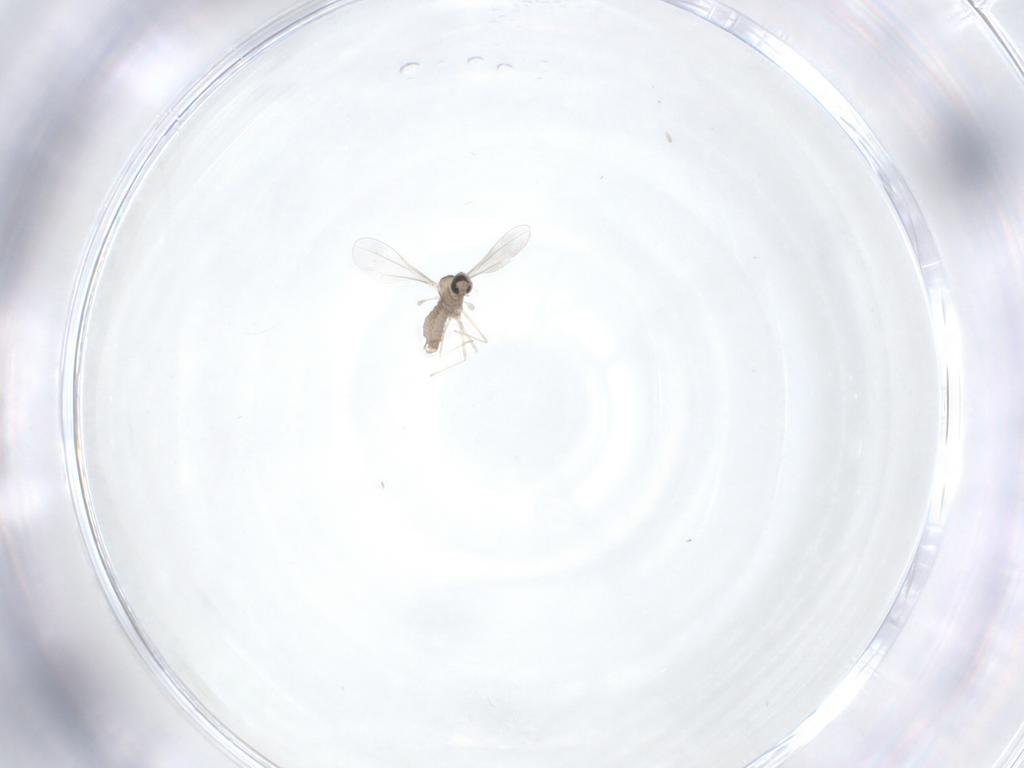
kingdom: Animalia
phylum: Arthropoda
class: Insecta
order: Diptera
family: Cecidomyiidae
